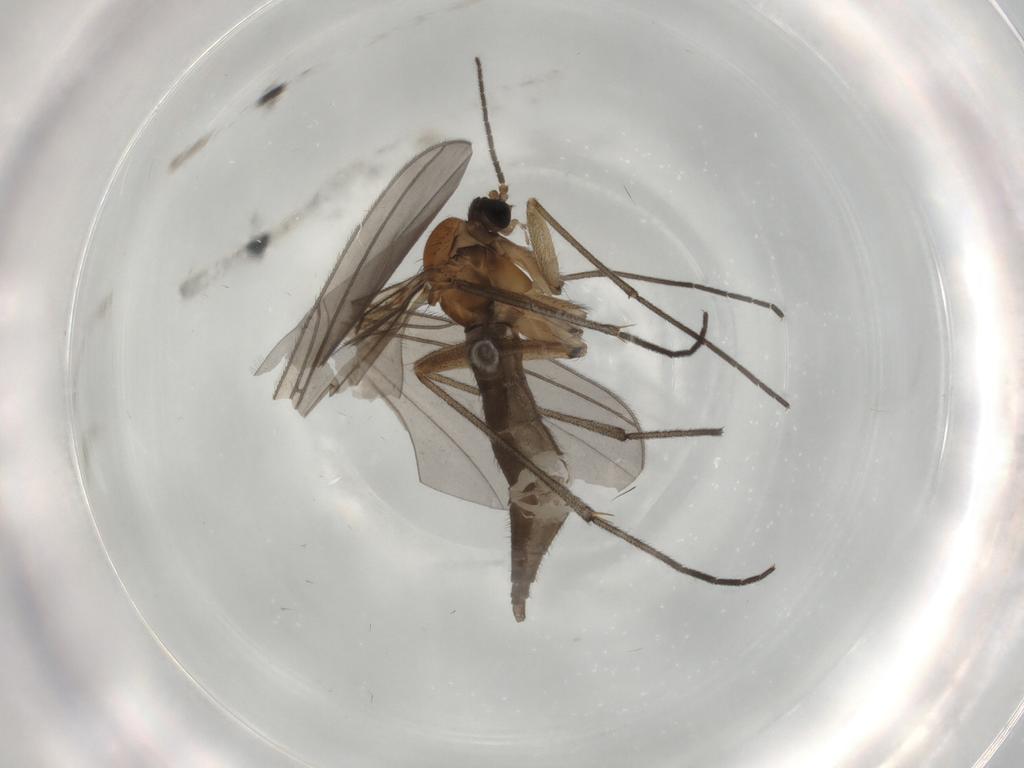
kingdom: Animalia
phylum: Arthropoda
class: Insecta
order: Diptera
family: Sciaridae
